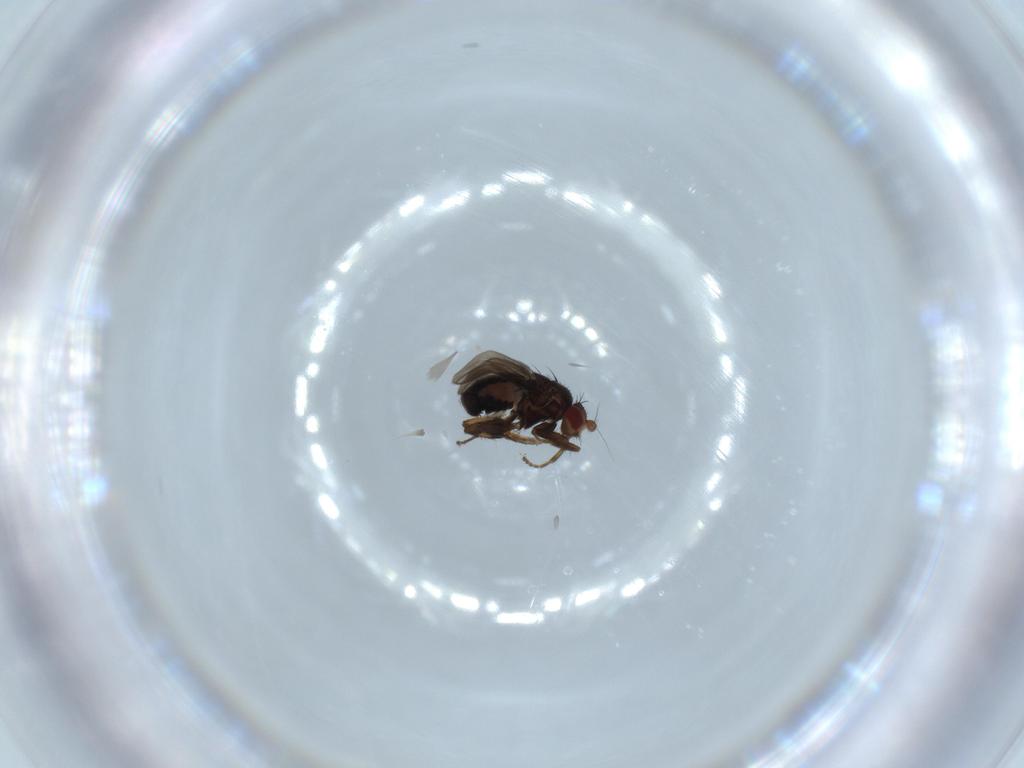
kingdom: Animalia
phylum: Arthropoda
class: Insecta
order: Diptera
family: Sphaeroceridae
